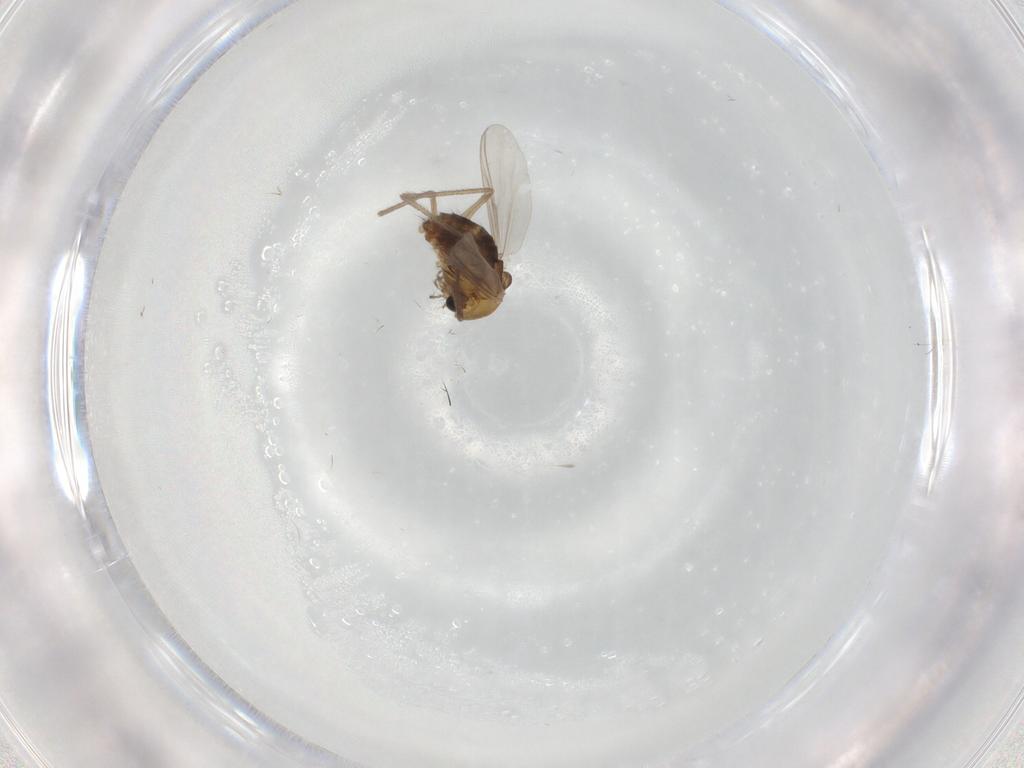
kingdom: Animalia
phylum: Arthropoda
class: Insecta
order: Diptera
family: Chironomidae
